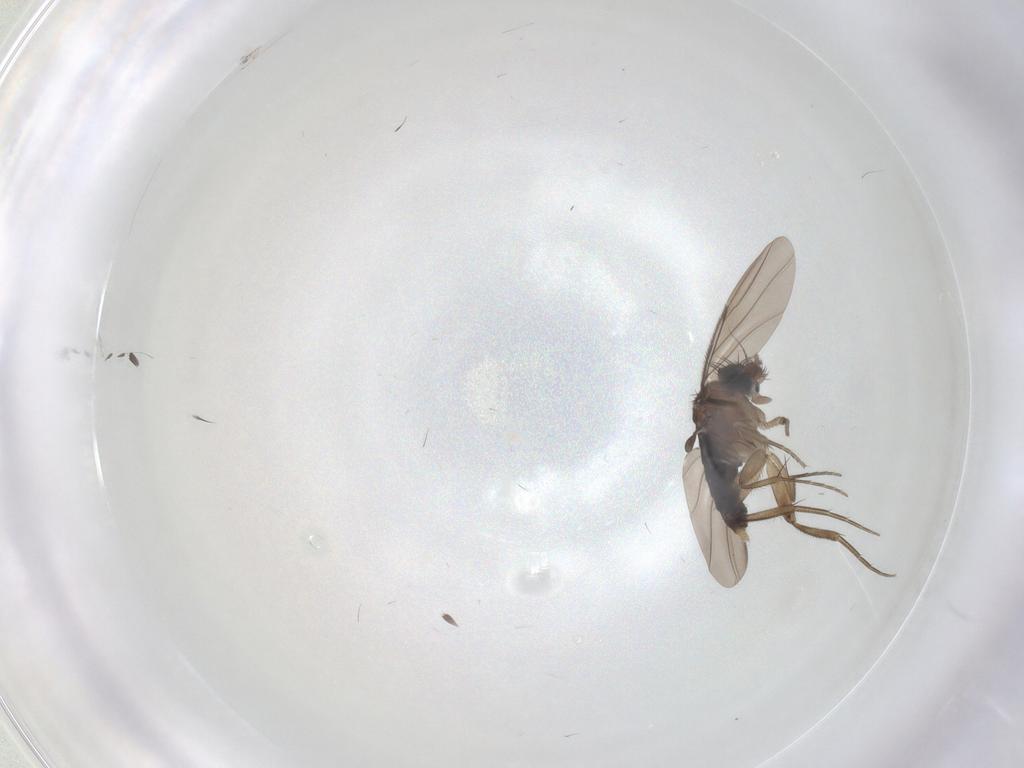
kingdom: Animalia
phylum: Arthropoda
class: Insecta
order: Diptera
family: Chironomidae
